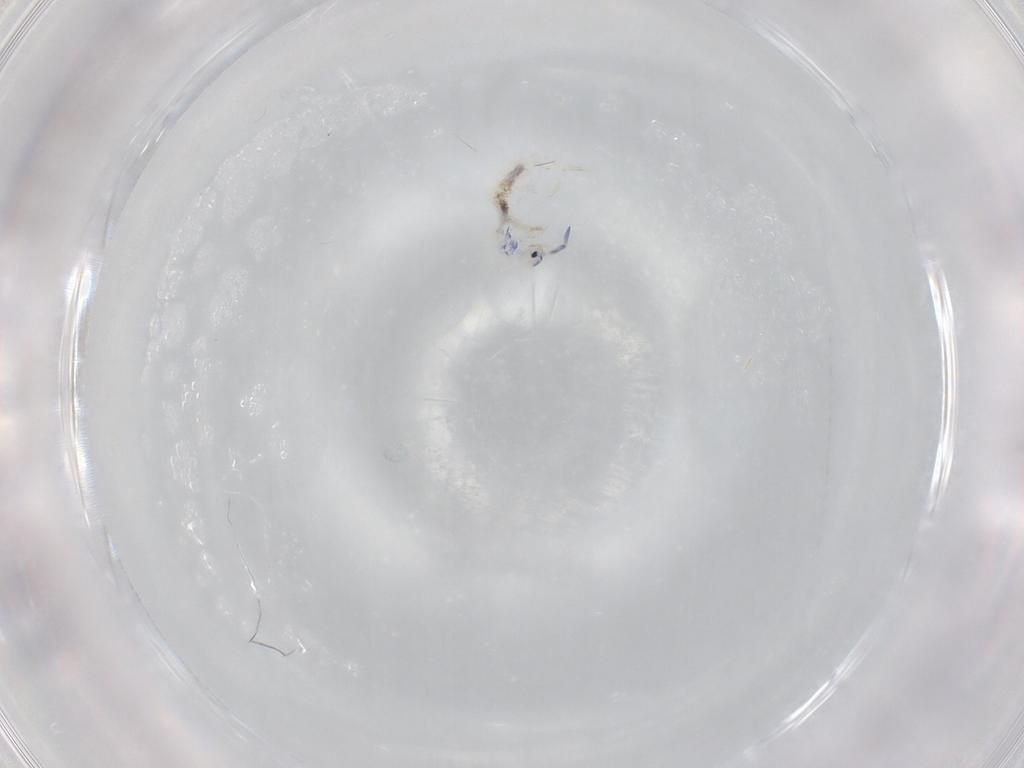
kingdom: Animalia
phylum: Arthropoda
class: Collembola
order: Entomobryomorpha
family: Entomobryidae
